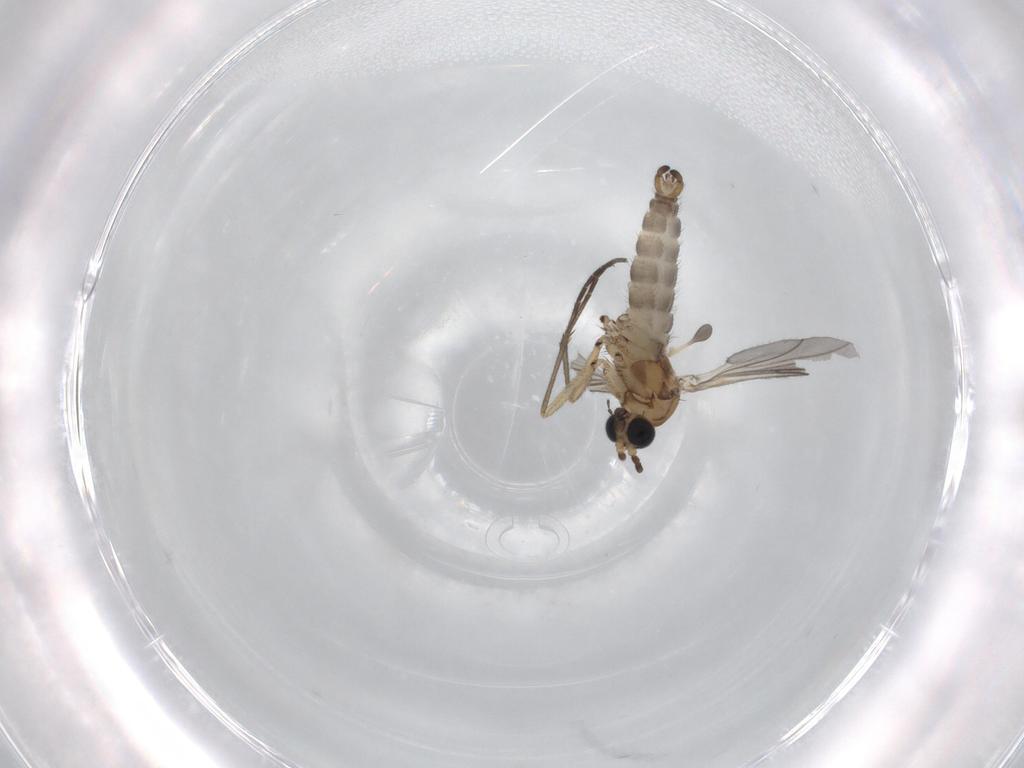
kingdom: Animalia
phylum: Arthropoda
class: Insecta
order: Diptera
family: Sciaridae
